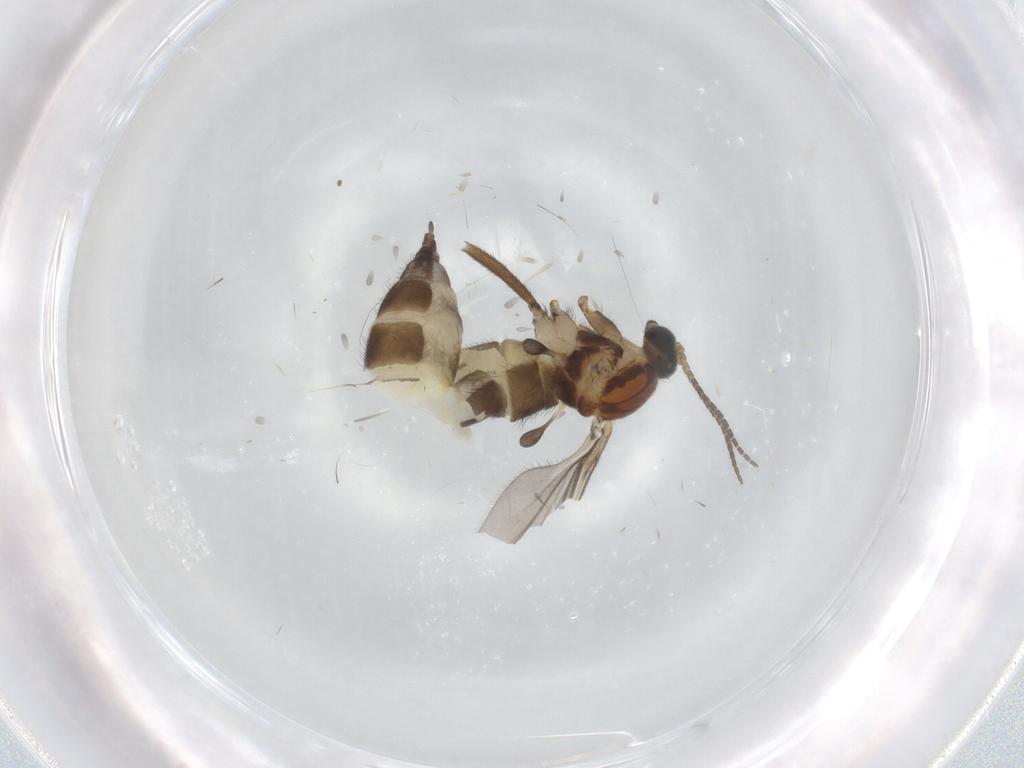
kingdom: Animalia
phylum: Arthropoda
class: Insecta
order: Diptera
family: Sciaridae
